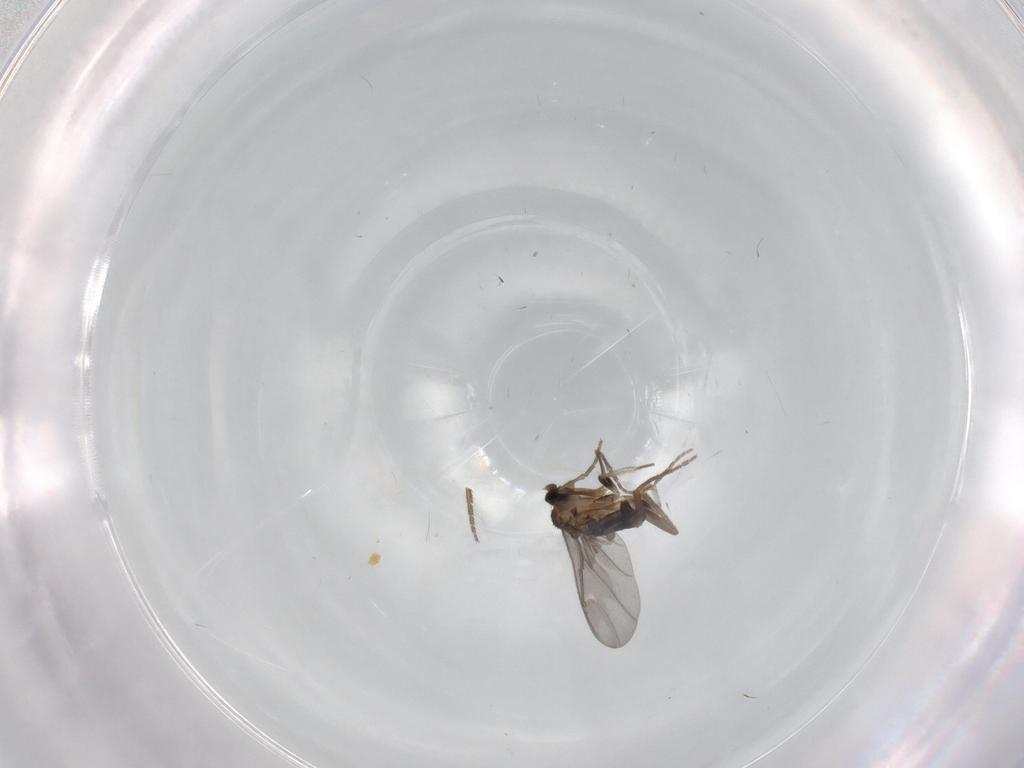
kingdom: Animalia
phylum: Arthropoda
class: Insecta
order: Diptera
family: Phoridae
